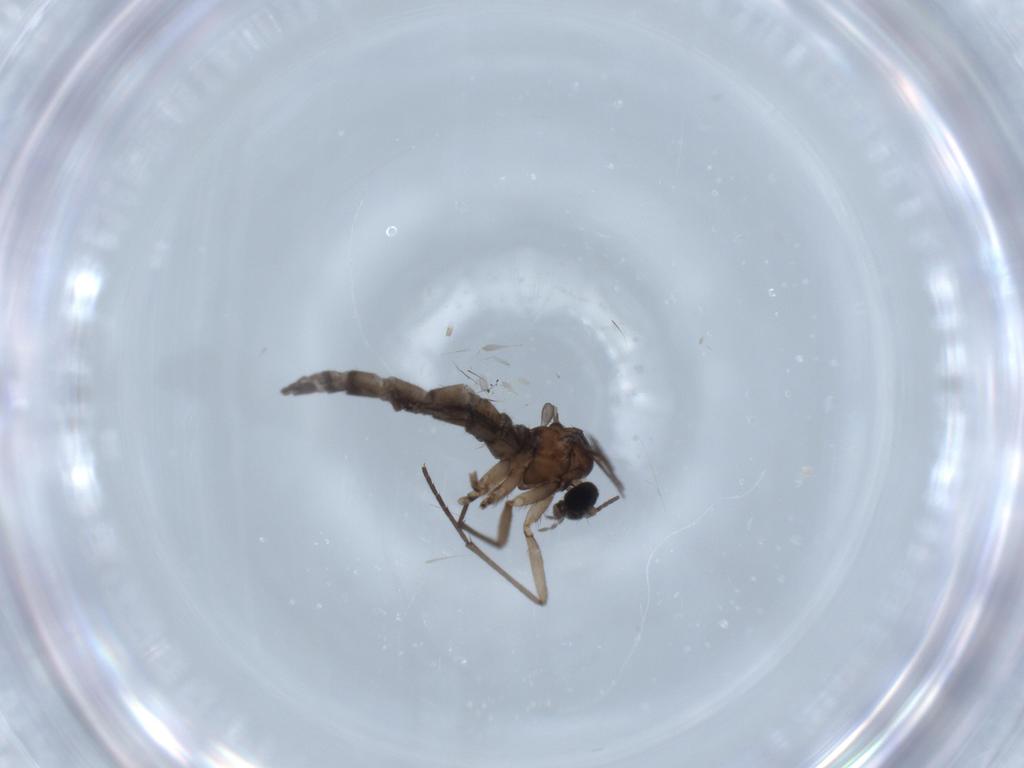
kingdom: Animalia
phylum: Arthropoda
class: Insecta
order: Diptera
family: Sciaridae
